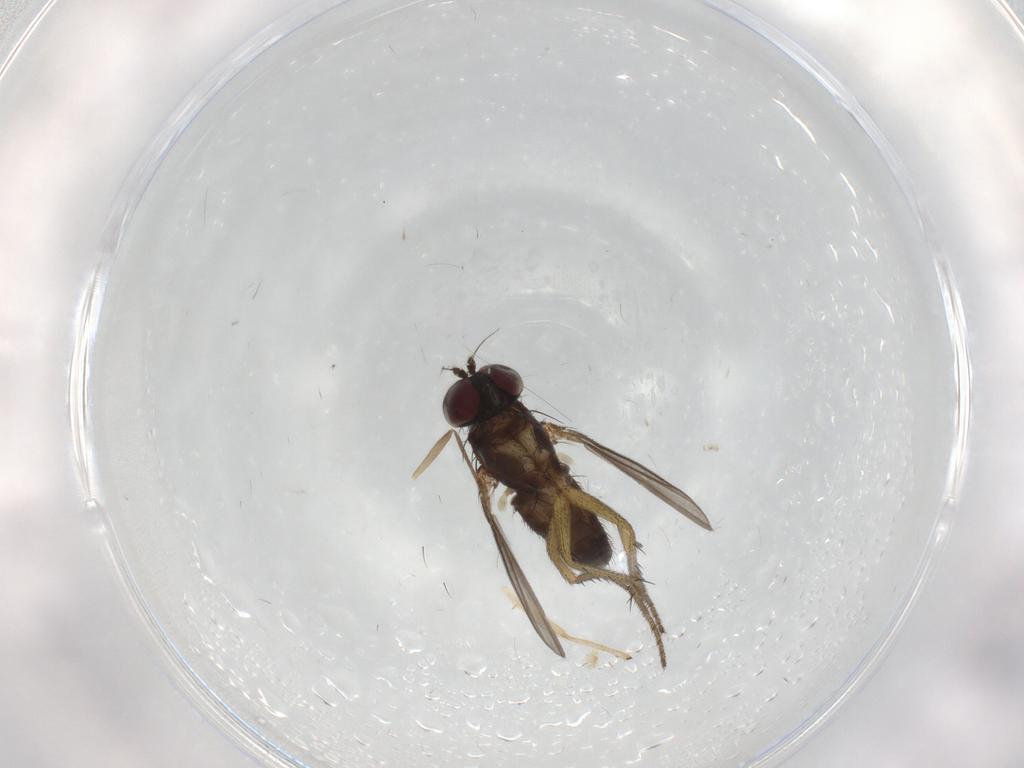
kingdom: Animalia
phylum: Arthropoda
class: Insecta
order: Diptera
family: Dolichopodidae
